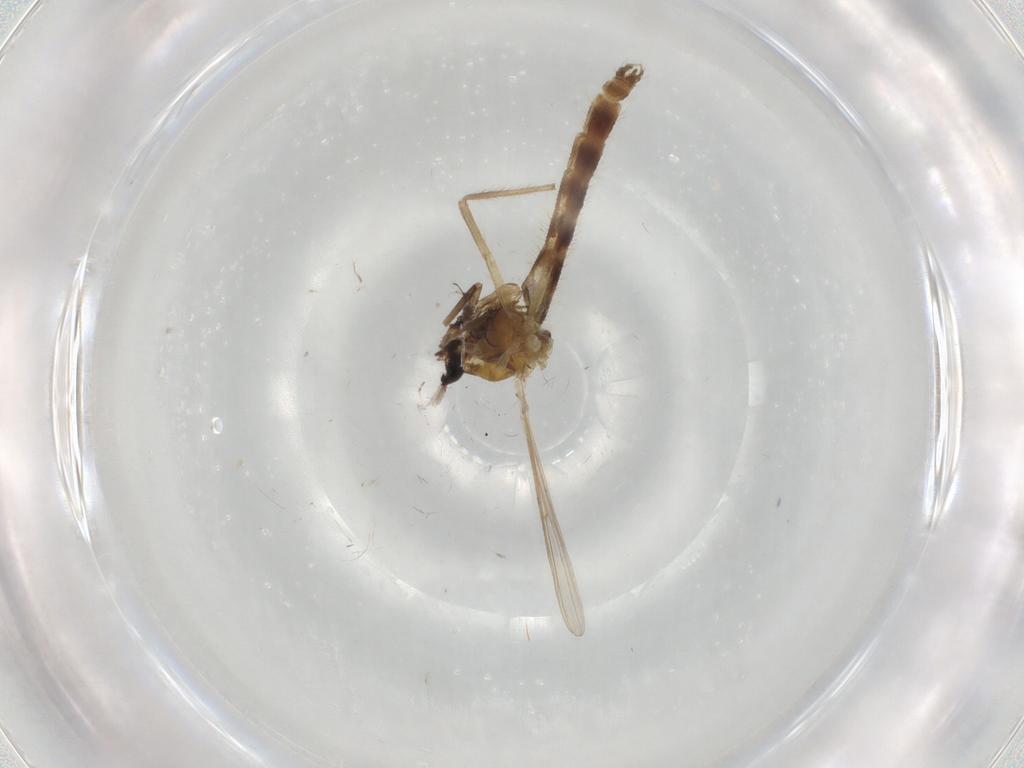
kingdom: Animalia
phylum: Arthropoda
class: Insecta
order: Diptera
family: Chironomidae
